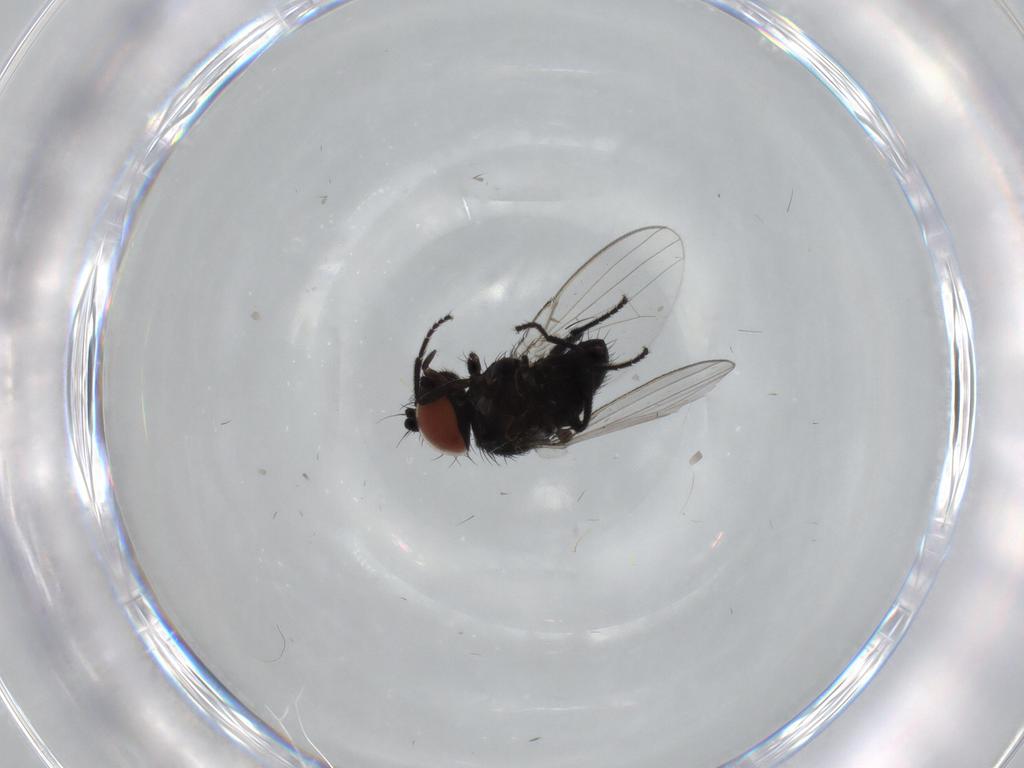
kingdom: Animalia
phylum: Arthropoda
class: Insecta
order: Diptera
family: Milichiidae
